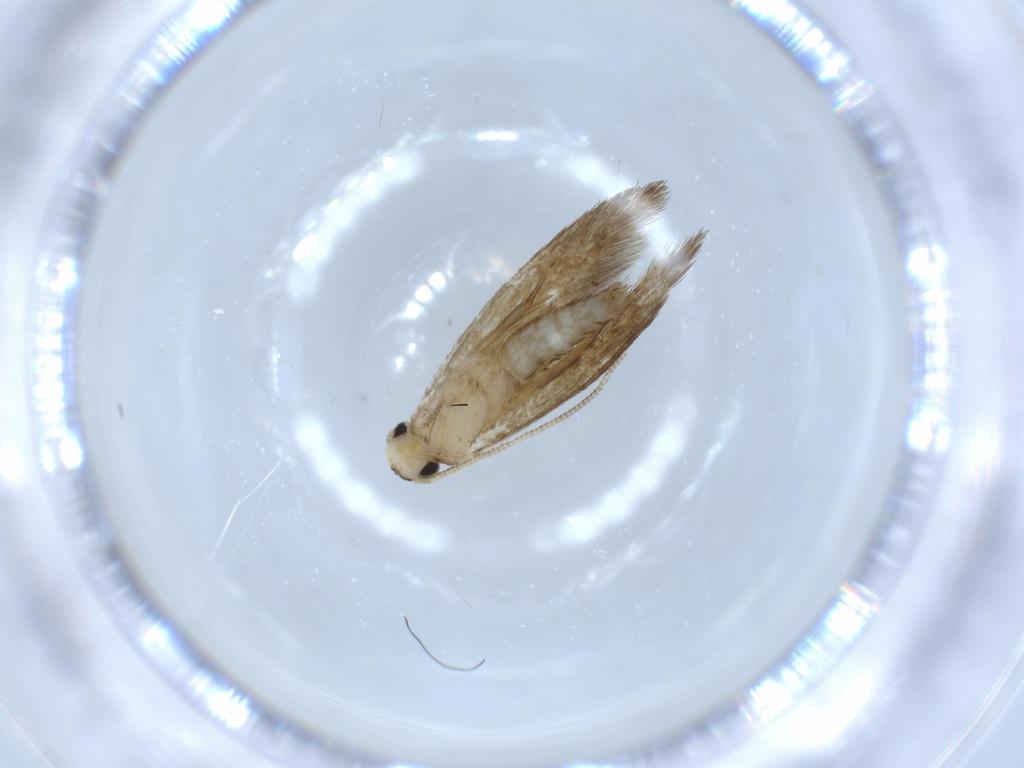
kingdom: Animalia
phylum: Arthropoda
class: Insecta
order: Lepidoptera
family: Tineidae
